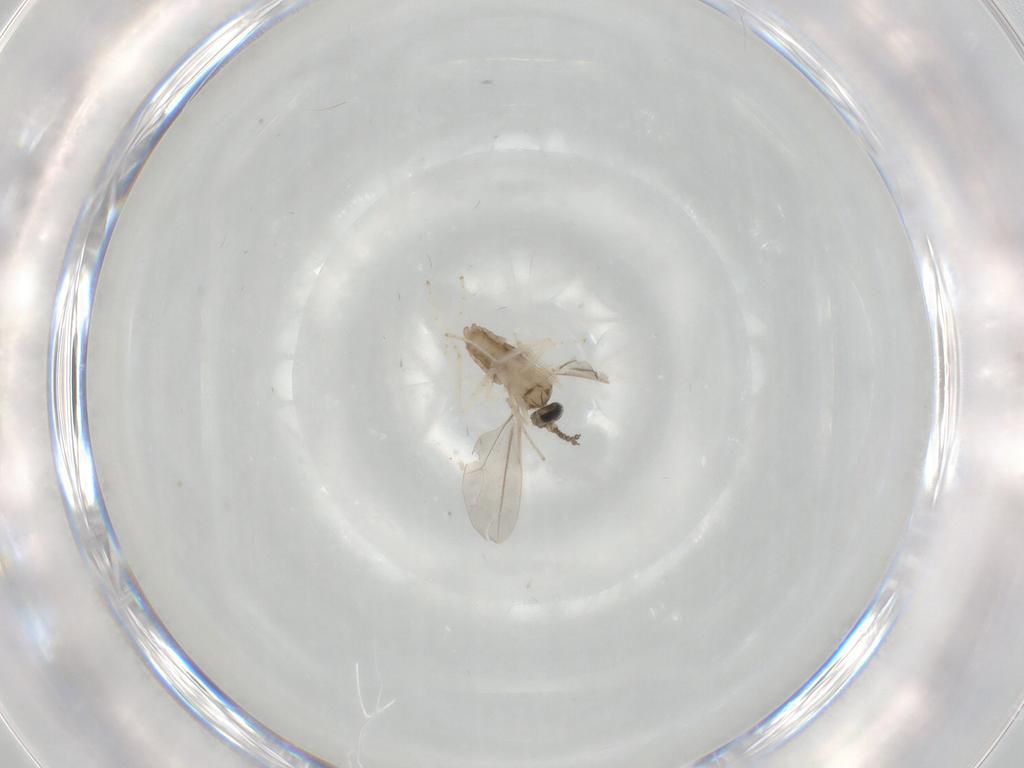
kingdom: Animalia
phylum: Arthropoda
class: Insecta
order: Diptera
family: Cecidomyiidae
